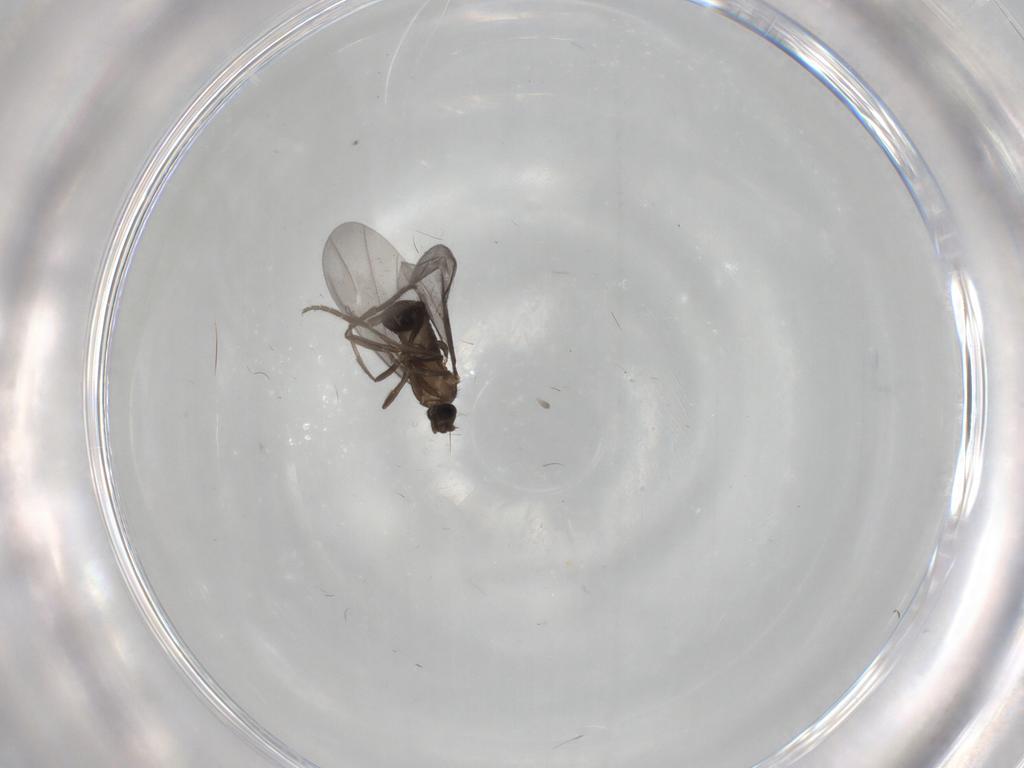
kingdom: Animalia
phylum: Arthropoda
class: Insecta
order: Diptera
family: Phoridae
